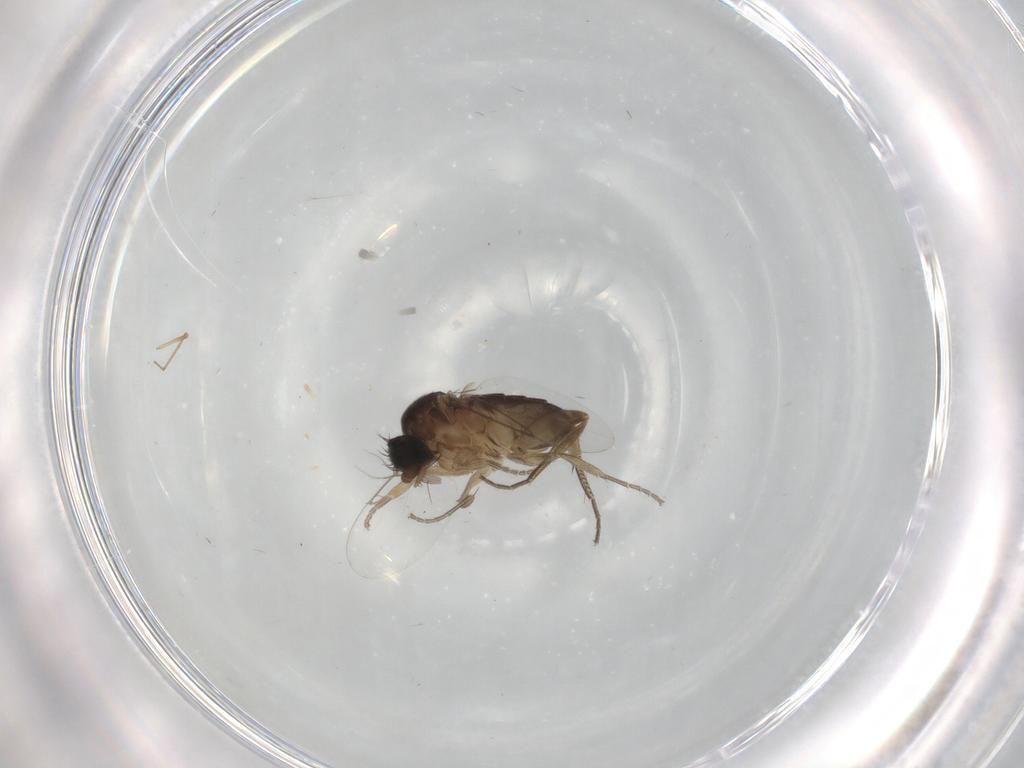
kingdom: Animalia
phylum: Arthropoda
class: Insecta
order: Diptera
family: Phoridae
